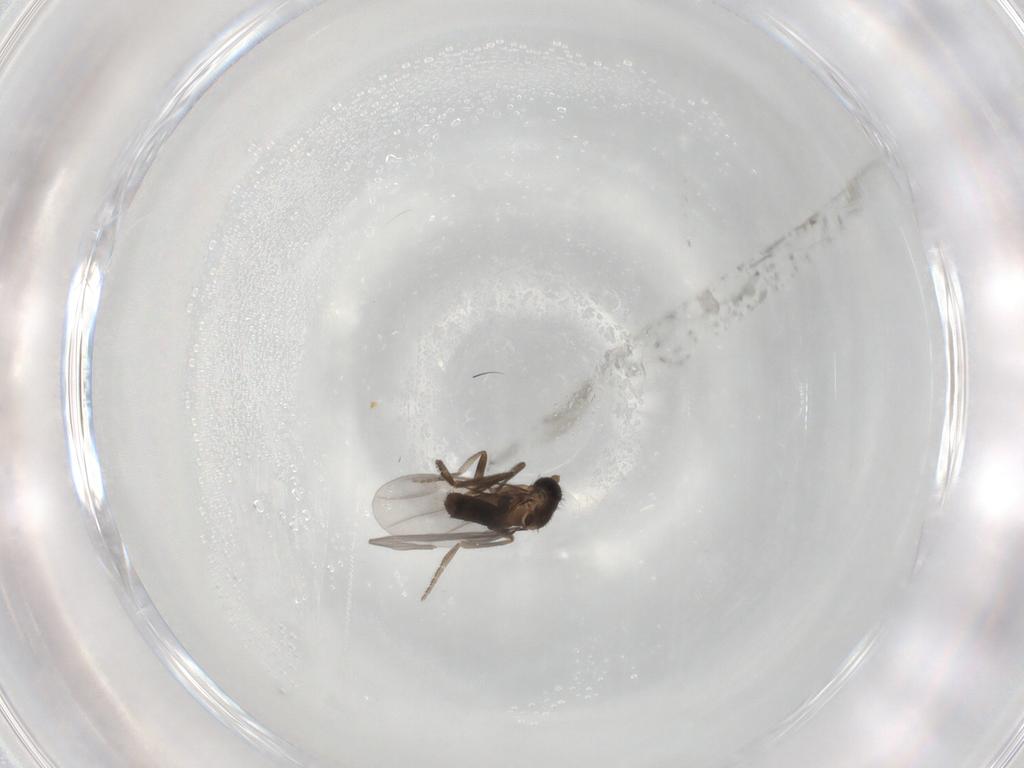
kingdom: Animalia
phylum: Arthropoda
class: Insecta
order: Diptera
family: Phoridae
